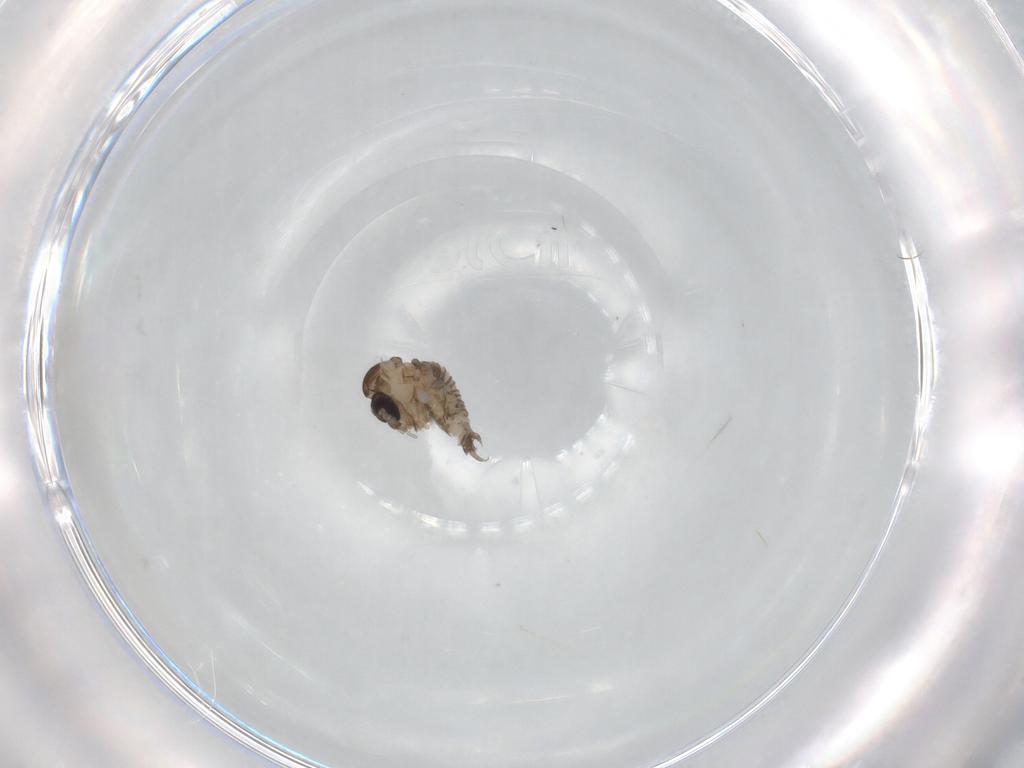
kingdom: Animalia
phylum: Arthropoda
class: Insecta
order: Diptera
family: Psychodidae
